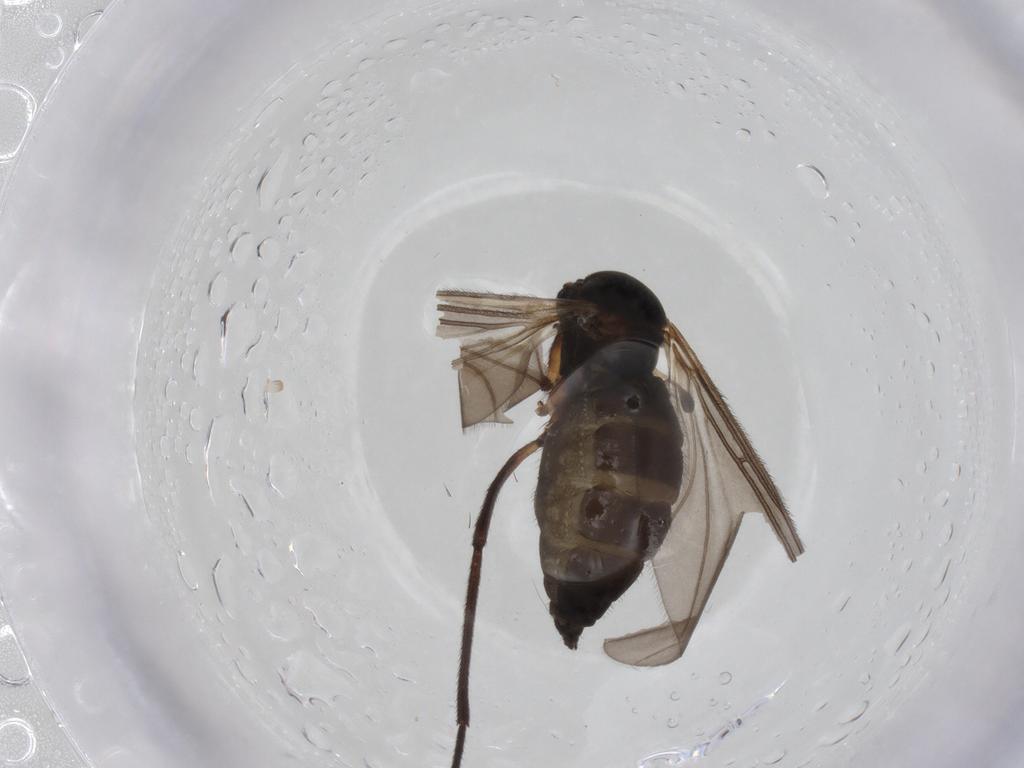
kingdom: Animalia
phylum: Arthropoda
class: Insecta
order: Diptera
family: Sciaridae
